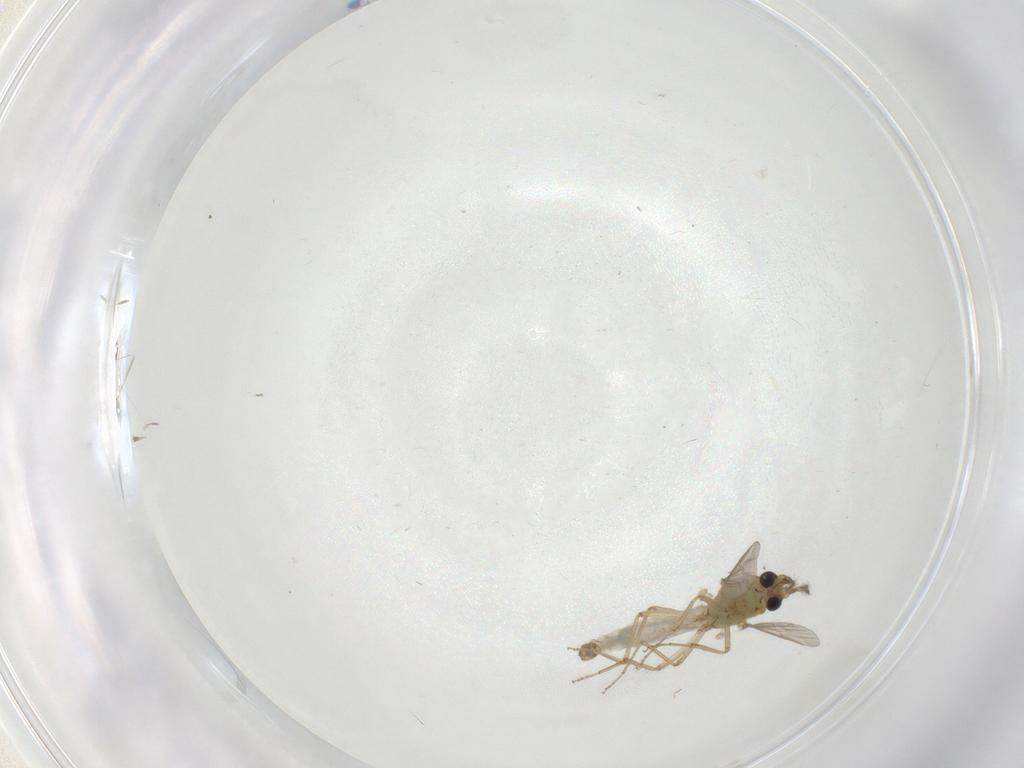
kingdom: Animalia
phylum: Arthropoda
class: Insecta
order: Diptera
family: Ceratopogonidae
